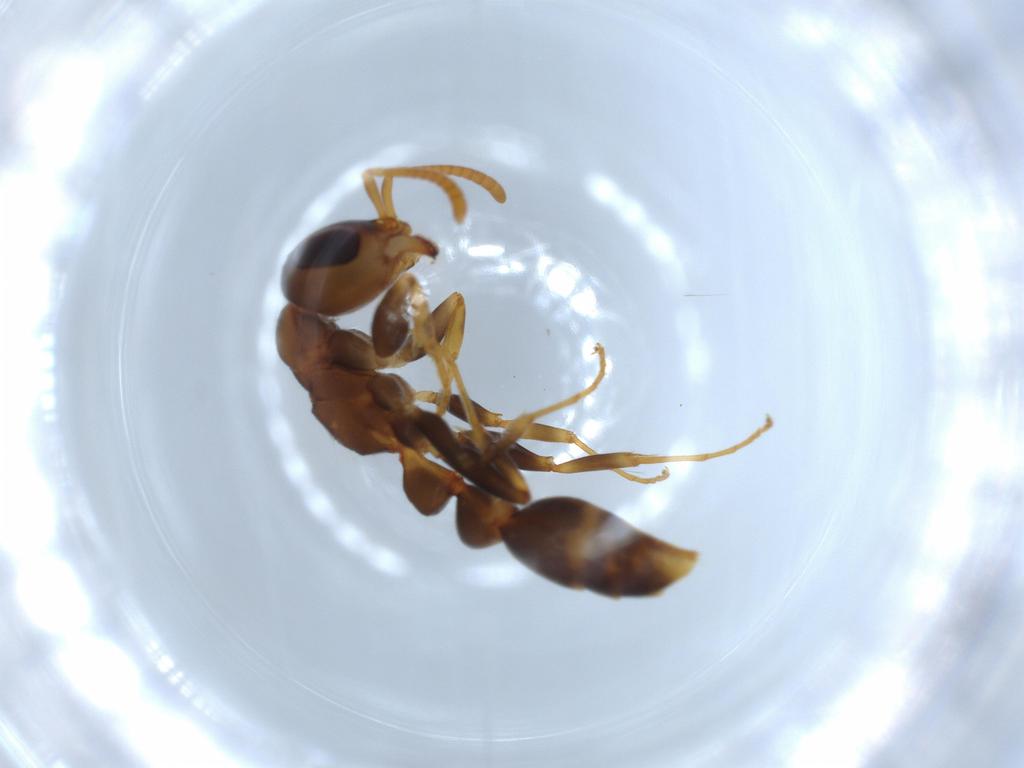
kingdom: Animalia
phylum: Arthropoda
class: Insecta
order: Hymenoptera
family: Formicidae
